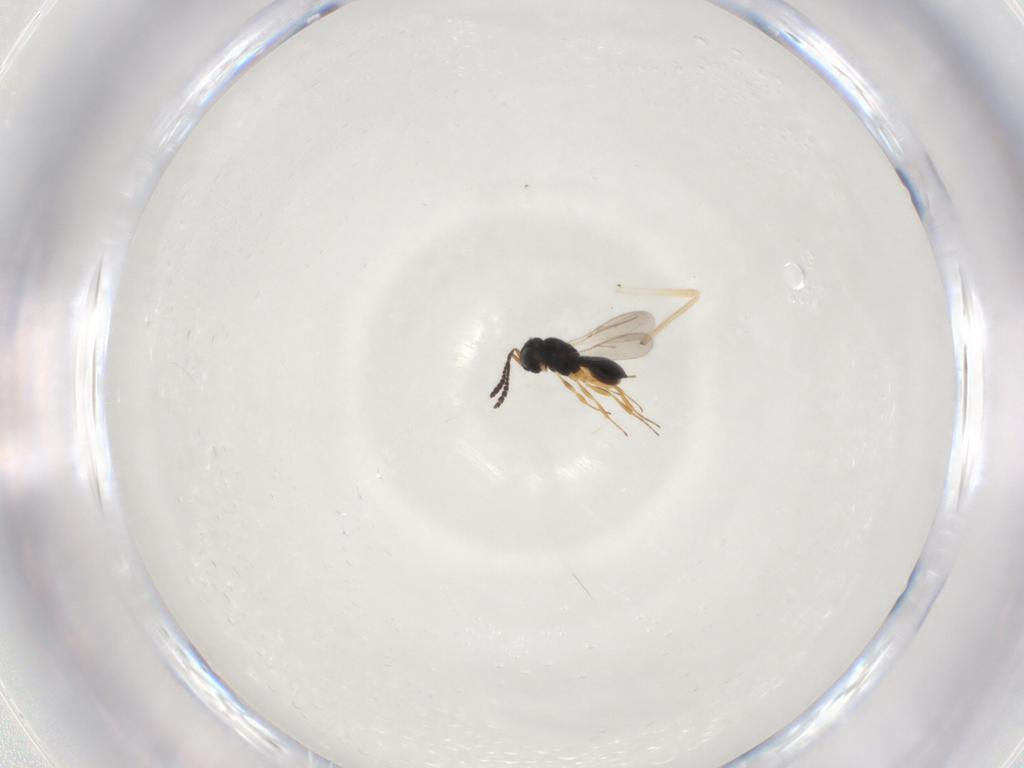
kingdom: Animalia
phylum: Arthropoda
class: Insecta
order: Hymenoptera
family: Scelionidae
